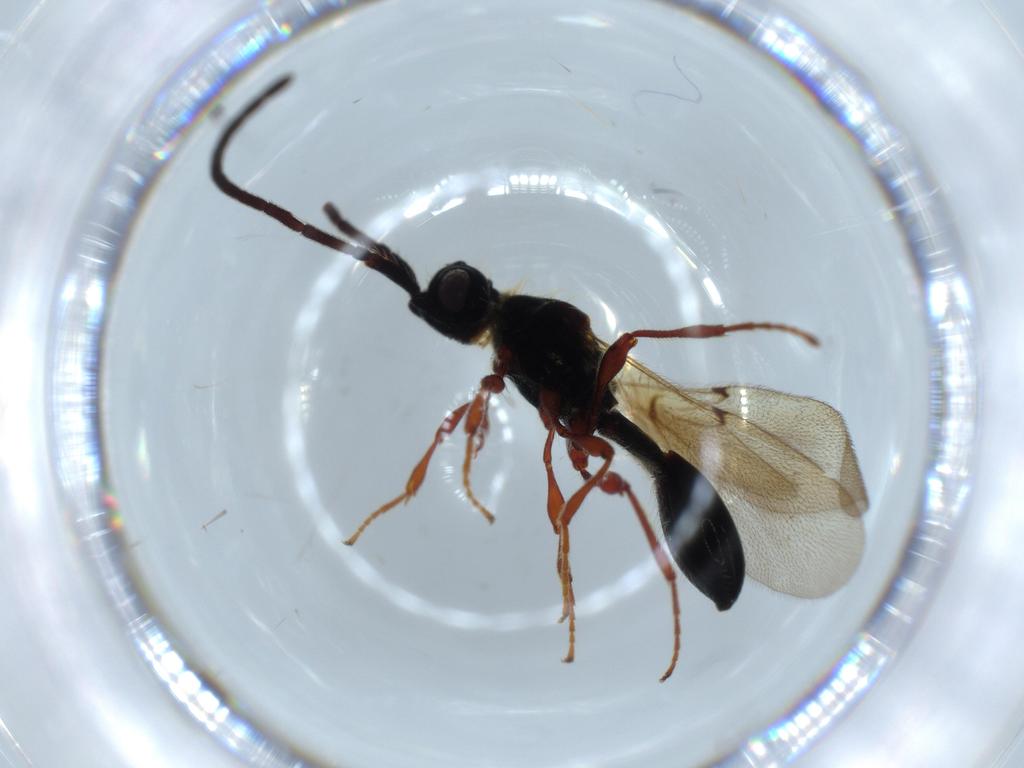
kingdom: Animalia
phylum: Arthropoda
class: Insecta
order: Hymenoptera
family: Diapriidae
